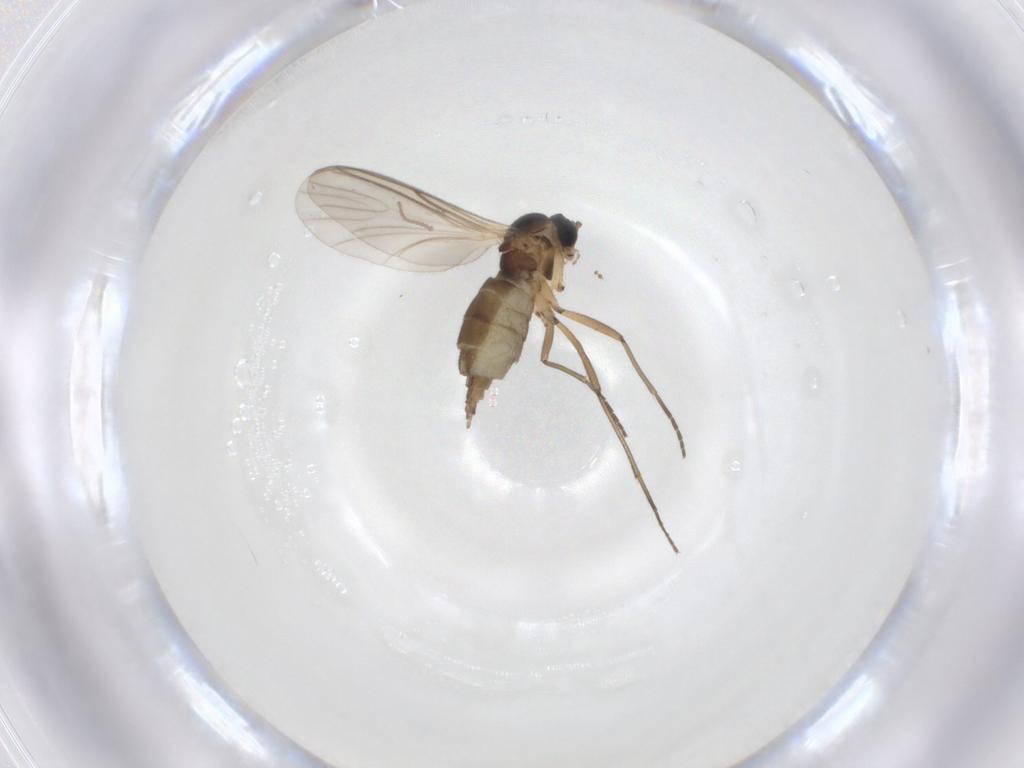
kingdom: Animalia
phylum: Arthropoda
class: Insecta
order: Diptera
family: Cecidomyiidae
